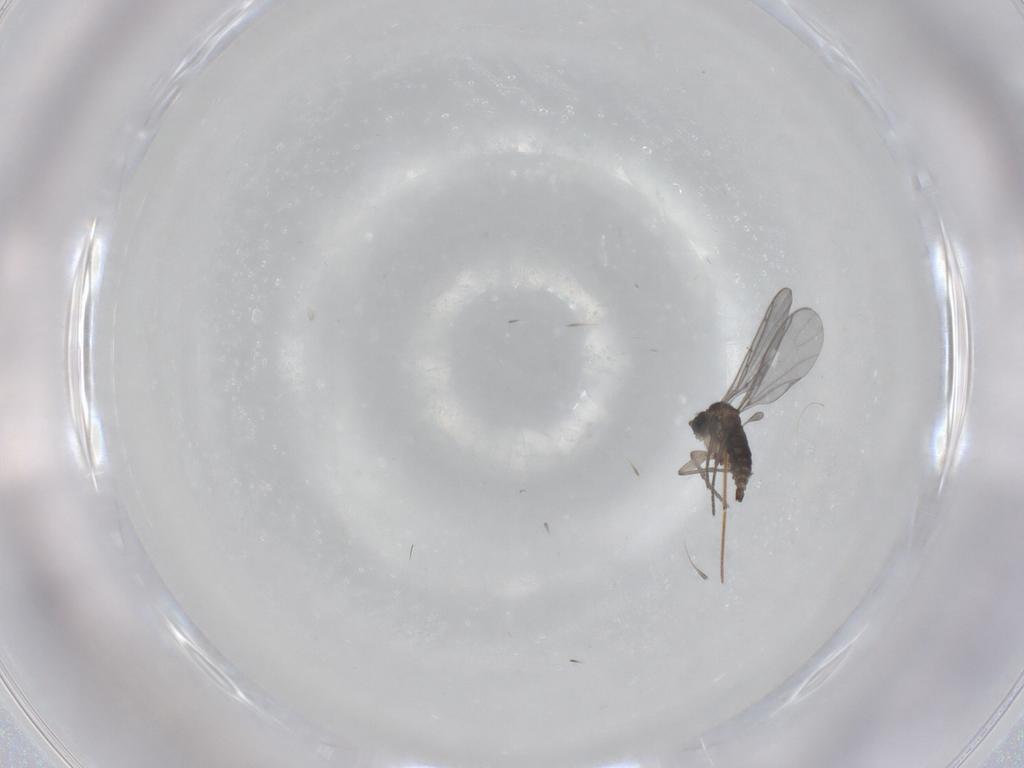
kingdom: Animalia
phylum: Arthropoda
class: Insecta
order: Diptera
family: Sciaridae
